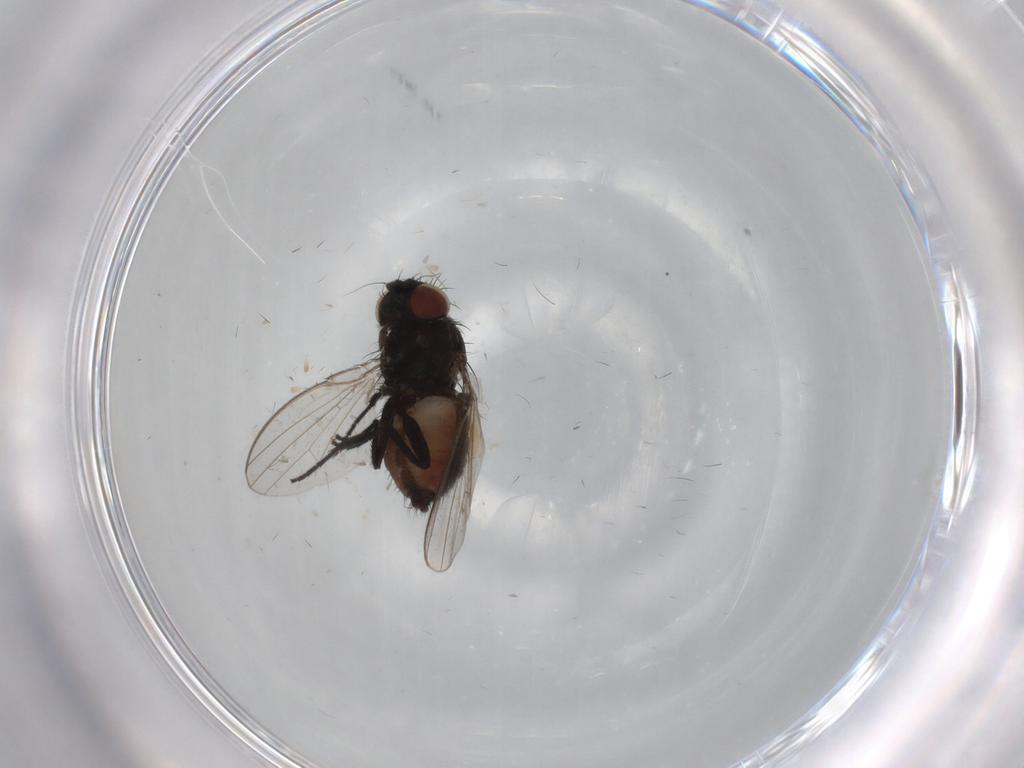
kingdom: Animalia
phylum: Arthropoda
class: Insecta
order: Diptera
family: Milichiidae
